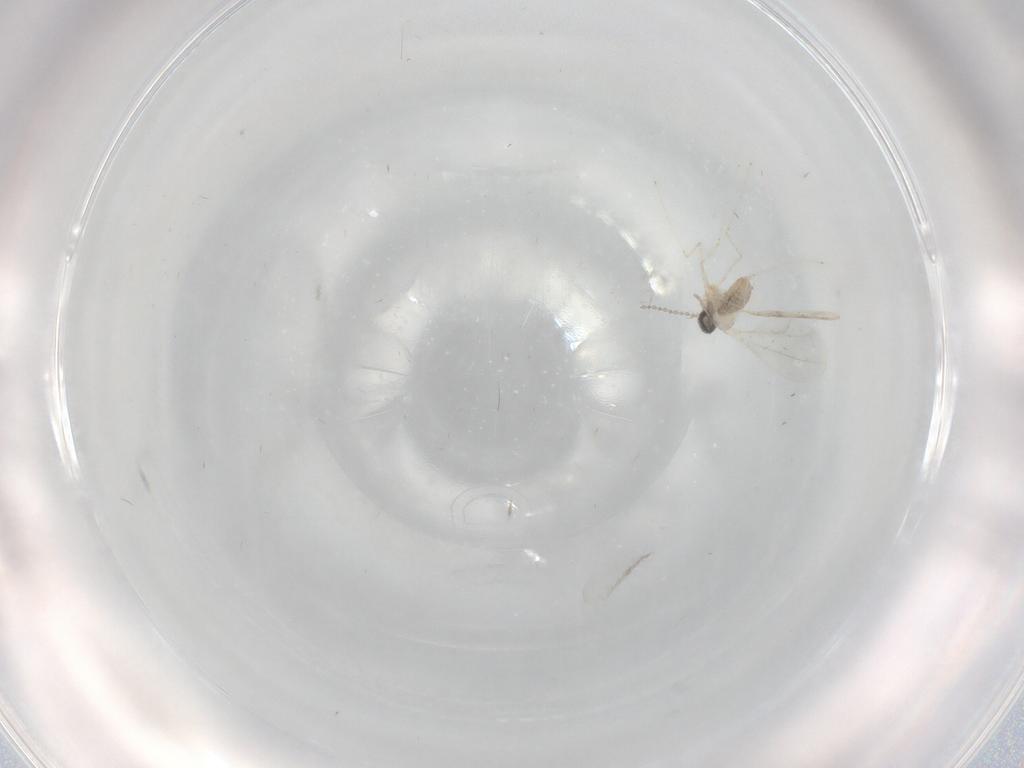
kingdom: Animalia
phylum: Arthropoda
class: Insecta
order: Diptera
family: Cecidomyiidae
